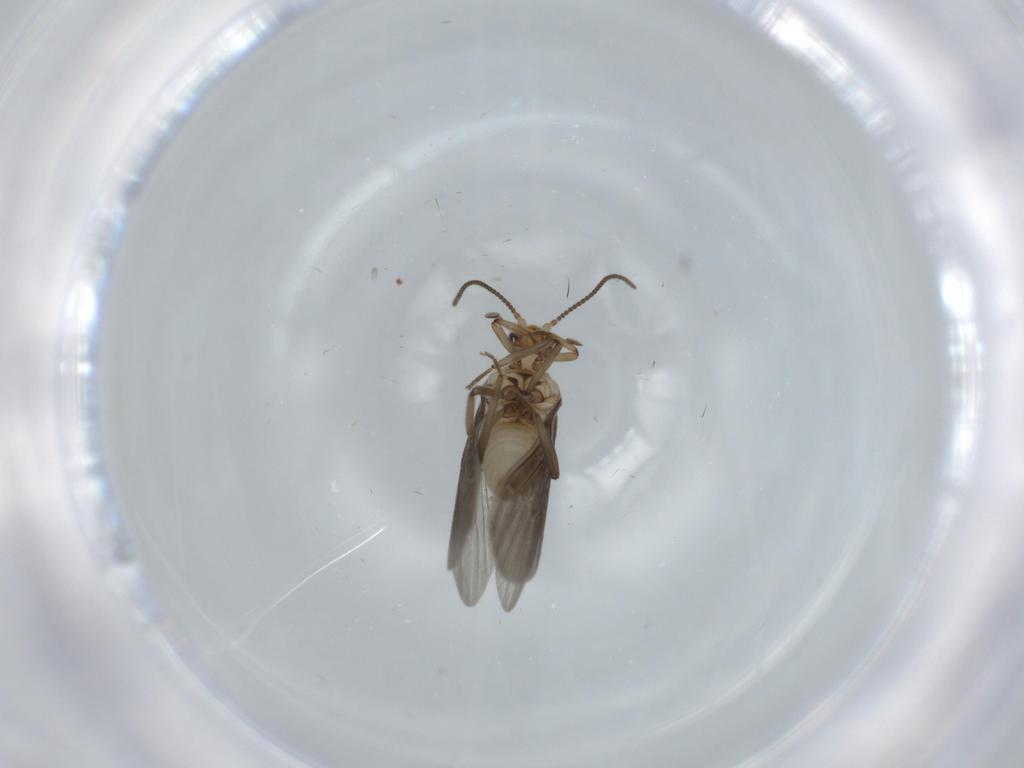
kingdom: Animalia
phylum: Arthropoda
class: Insecta
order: Neuroptera
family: Coniopterygidae
